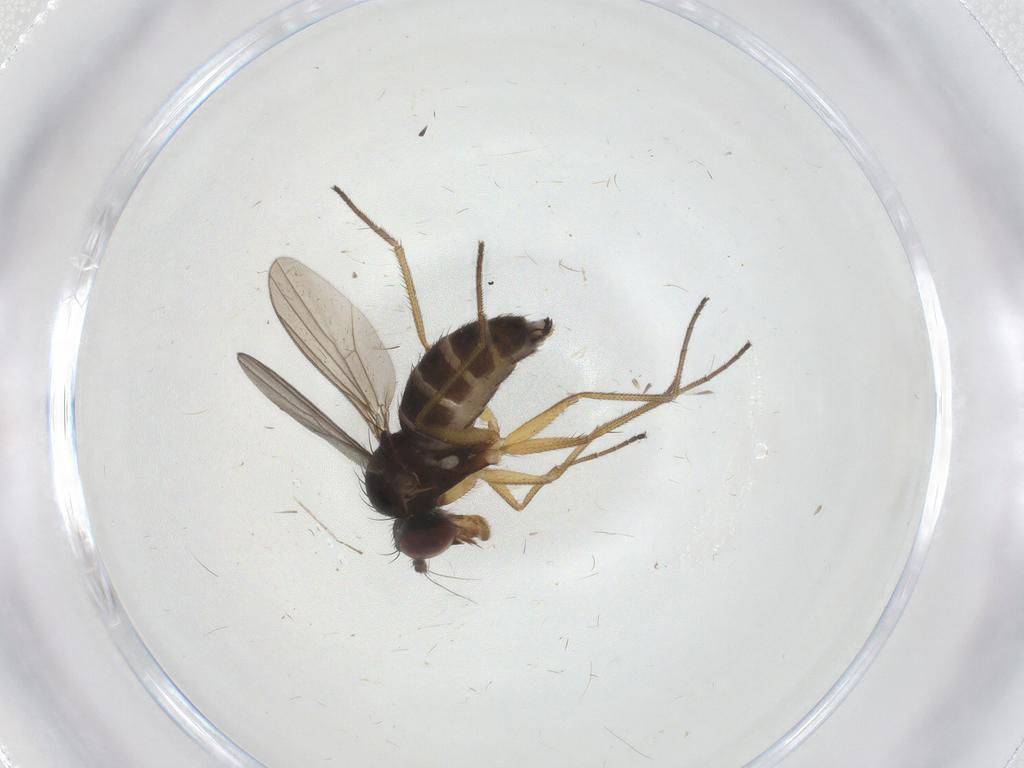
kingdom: Animalia
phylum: Arthropoda
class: Insecta
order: Diptera
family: Dolichopodidae
